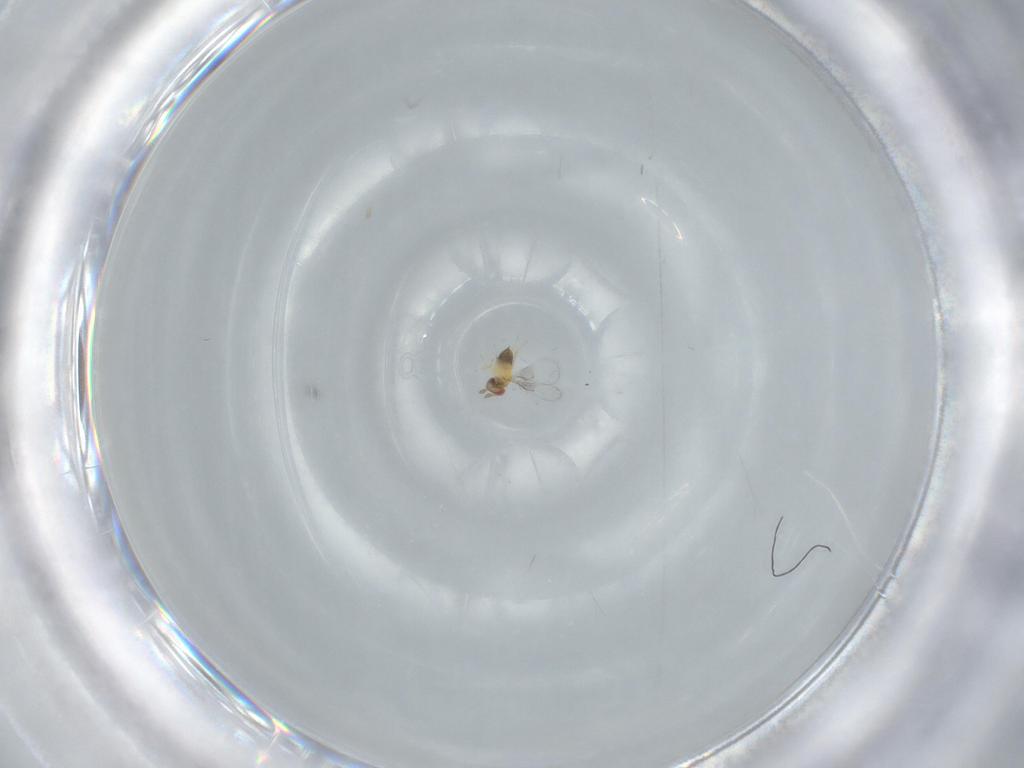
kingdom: Animalia
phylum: Arthropoda
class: Insecta
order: Hymenoptera
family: Trichogrammatidae
